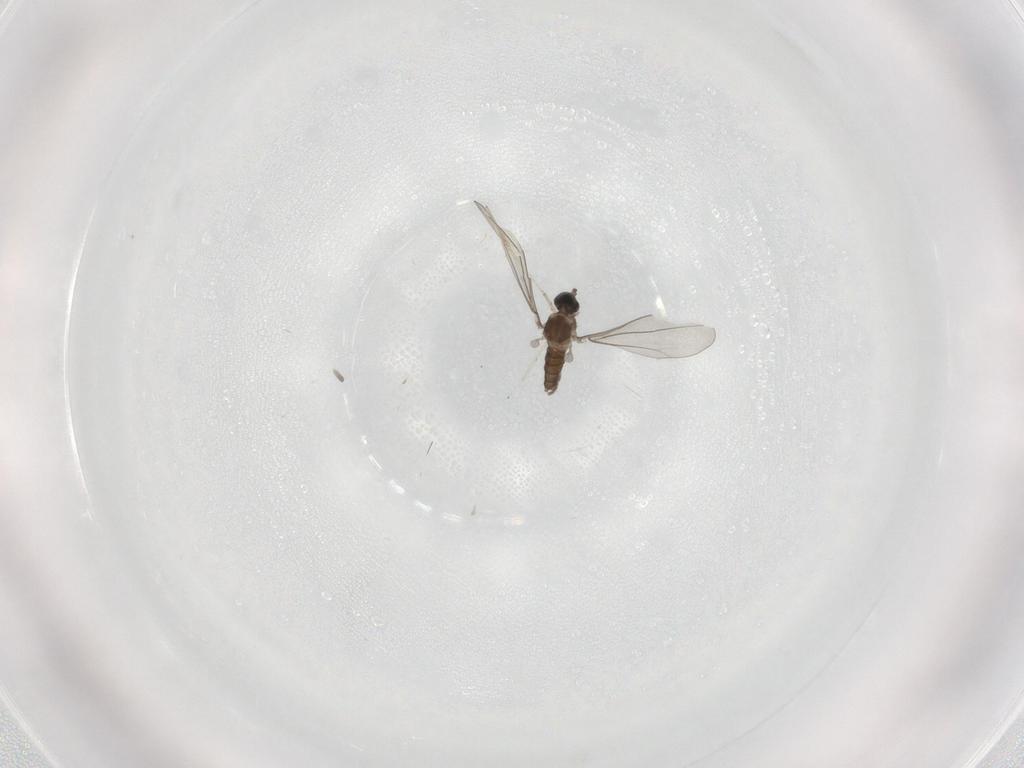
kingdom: Animalia
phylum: Arthropoda
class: Insecta
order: Diptera
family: Cecidomyiidae
